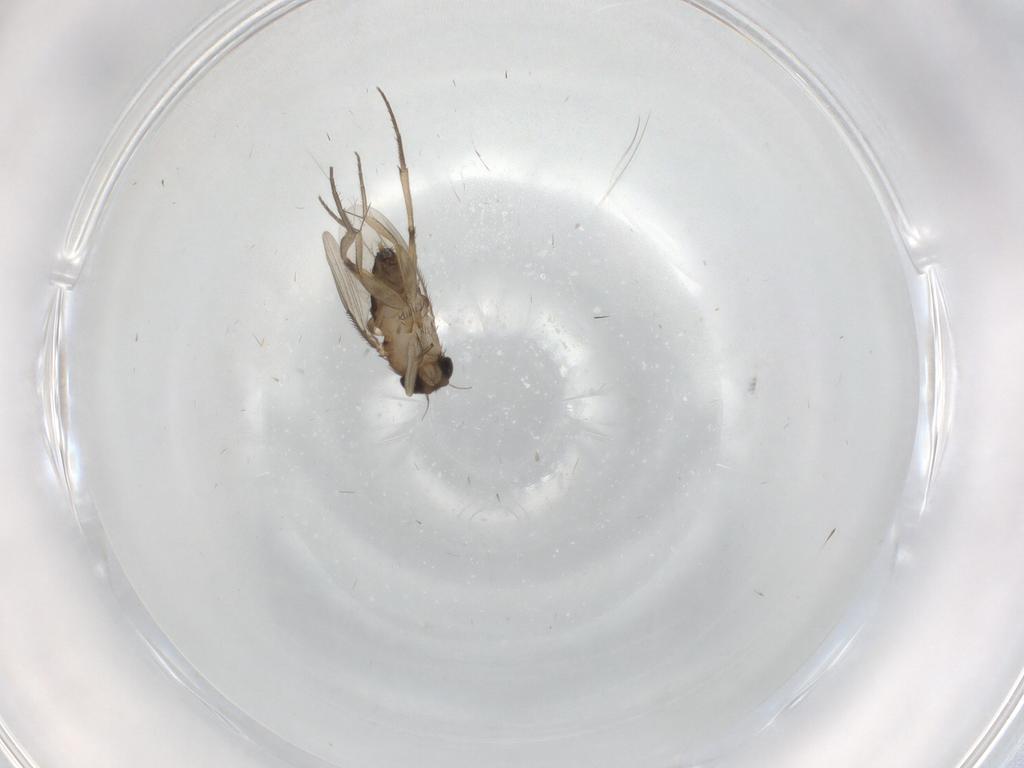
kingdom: Animalia
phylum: Arthropoda
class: Insecta
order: Diptera
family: Phoridae
